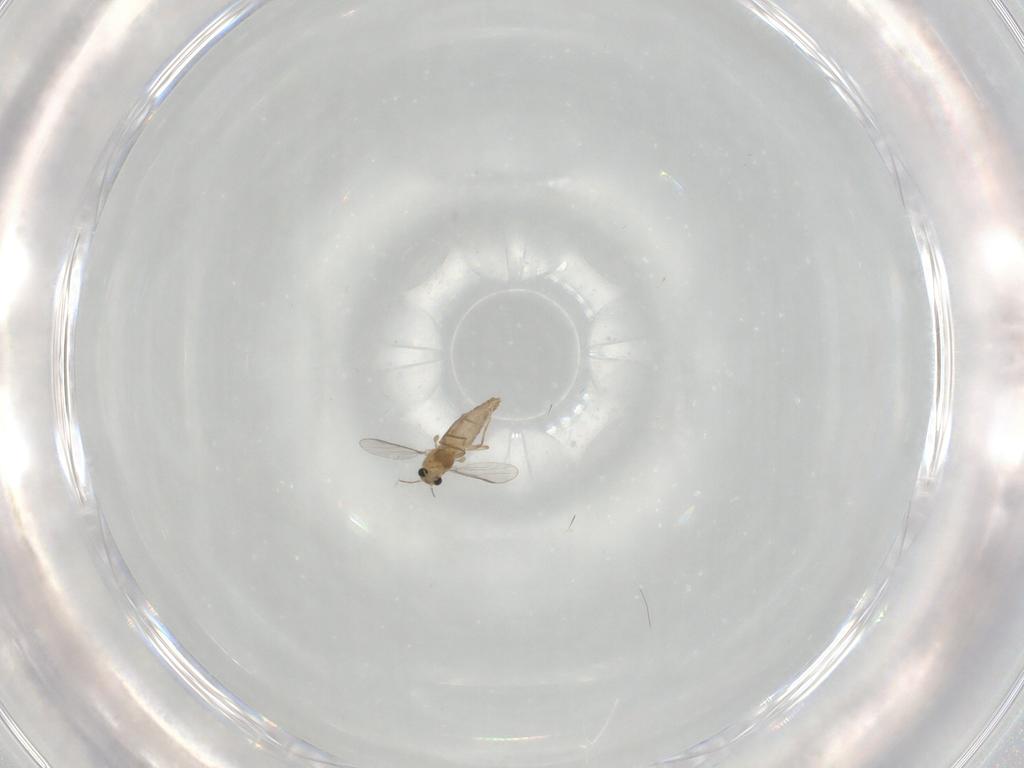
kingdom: Animalia
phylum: Arthropoda
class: Insecta
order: Diptera
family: Chironomidae
